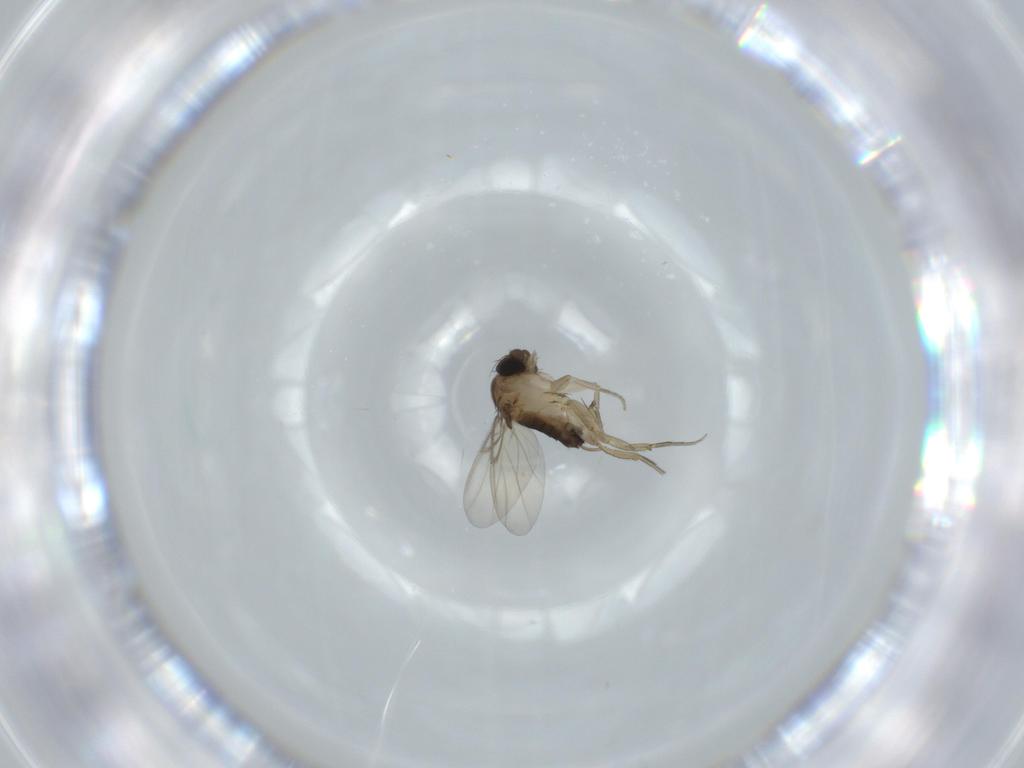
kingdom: Animalia
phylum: Arthropoda
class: Insecta
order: Diptera
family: Phoridae
